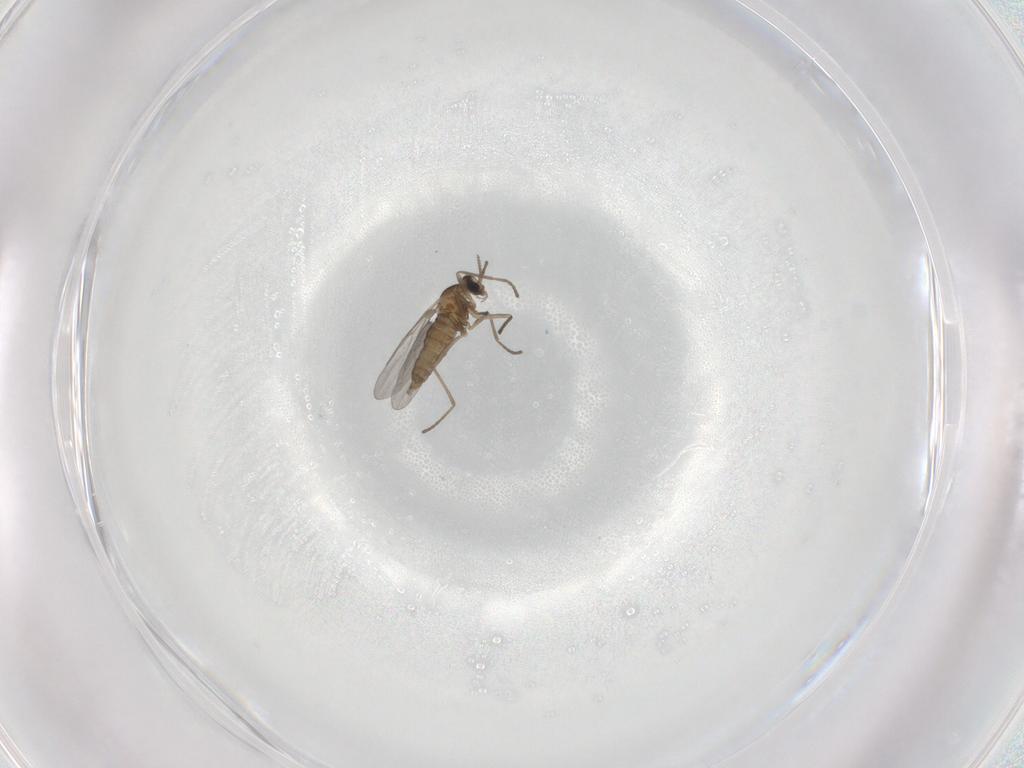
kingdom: Animalia
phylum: Arthropoda
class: Insecta
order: Diptera
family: Cecidomyiidae
